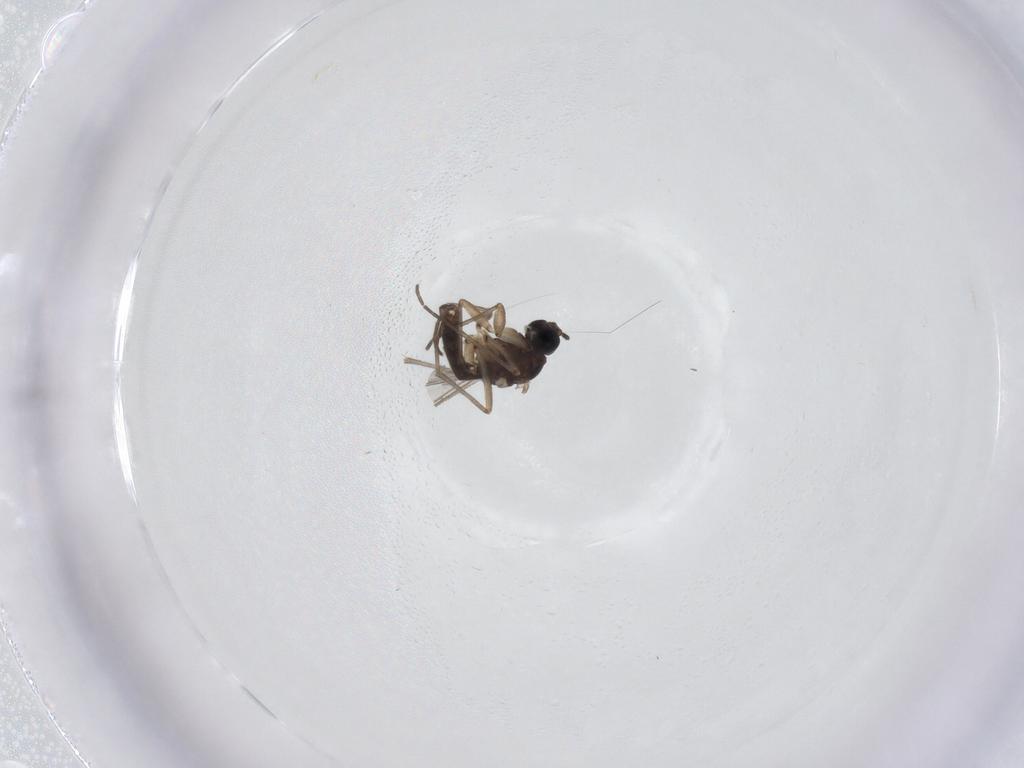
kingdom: Animalia
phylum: Arthropoda
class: Insecta
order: Diptera
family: Sciaridae
